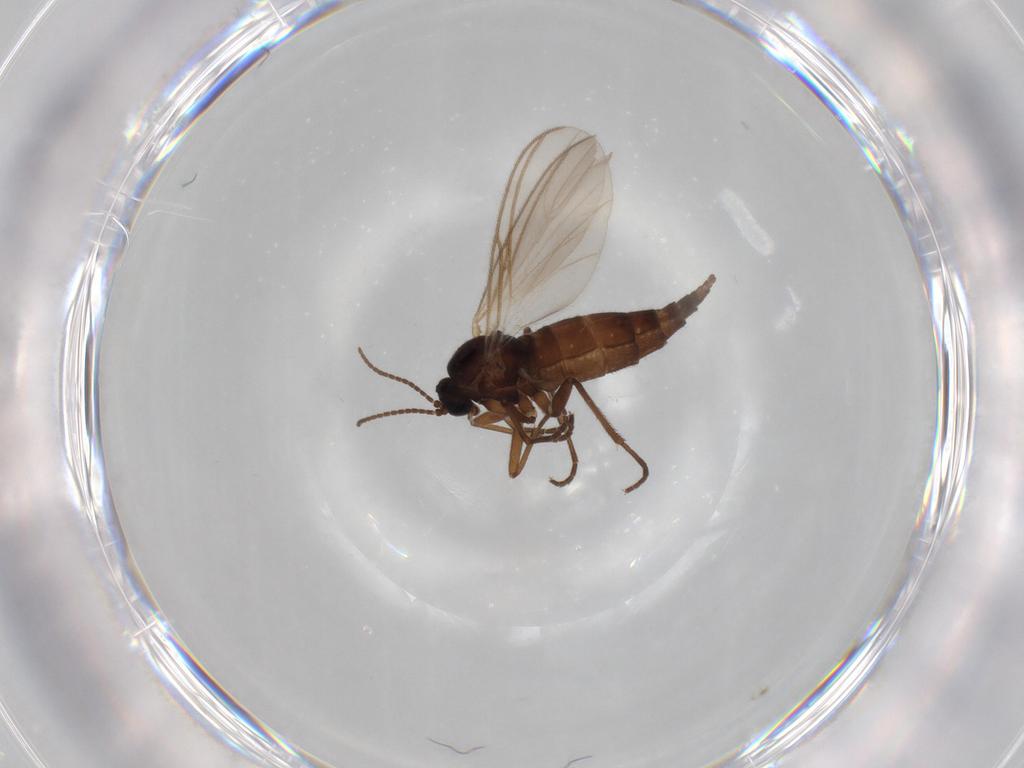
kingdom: Animalia
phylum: Arthropoda
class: Insecta
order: Diptera
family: Sciaridae
